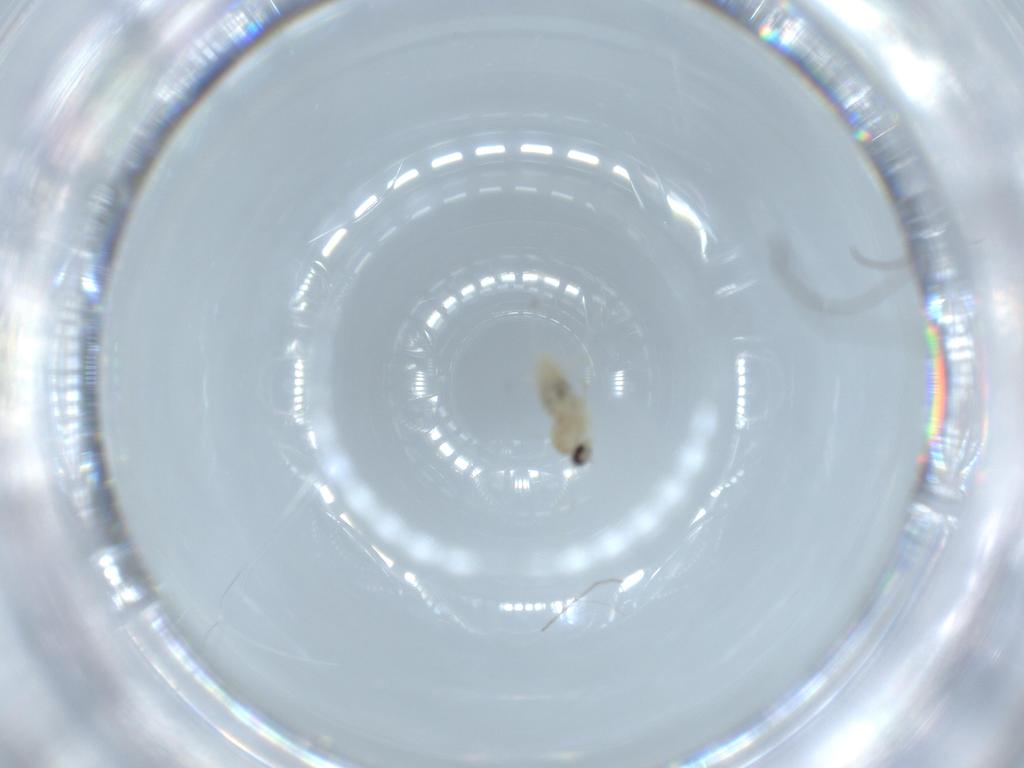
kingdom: Animalia
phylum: Arthropoda
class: Insecta
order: Diptera
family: Cecidomyiidae
